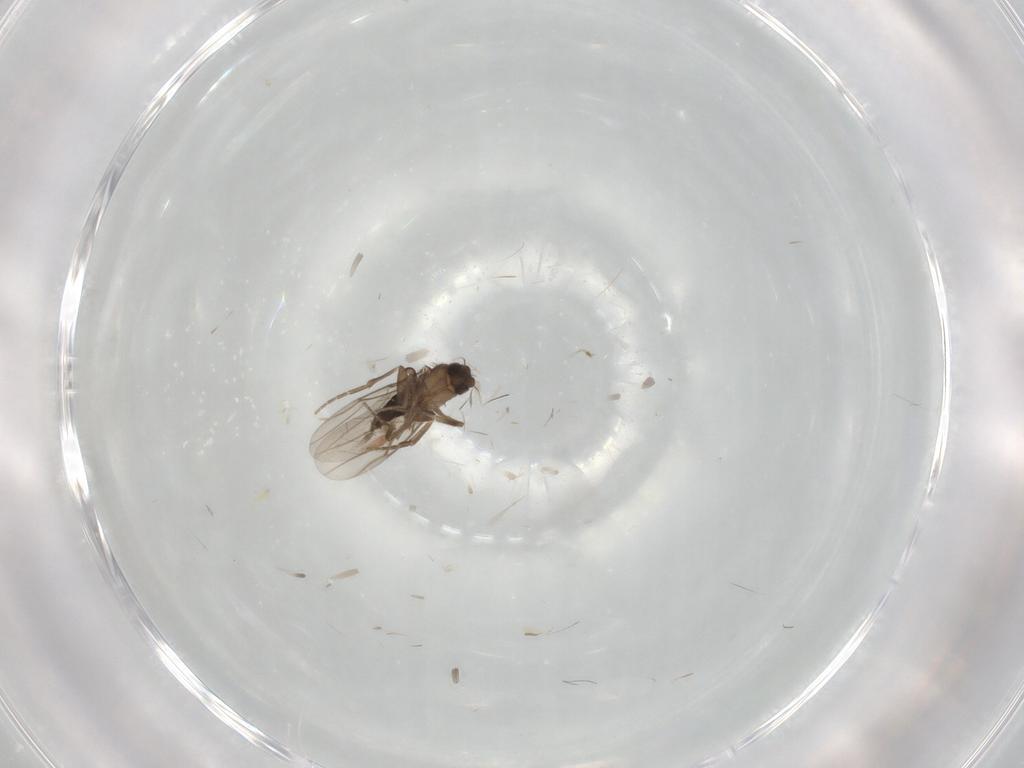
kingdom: Animalia
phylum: Arthropoda
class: Insecta
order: Diptera
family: Phoridae
